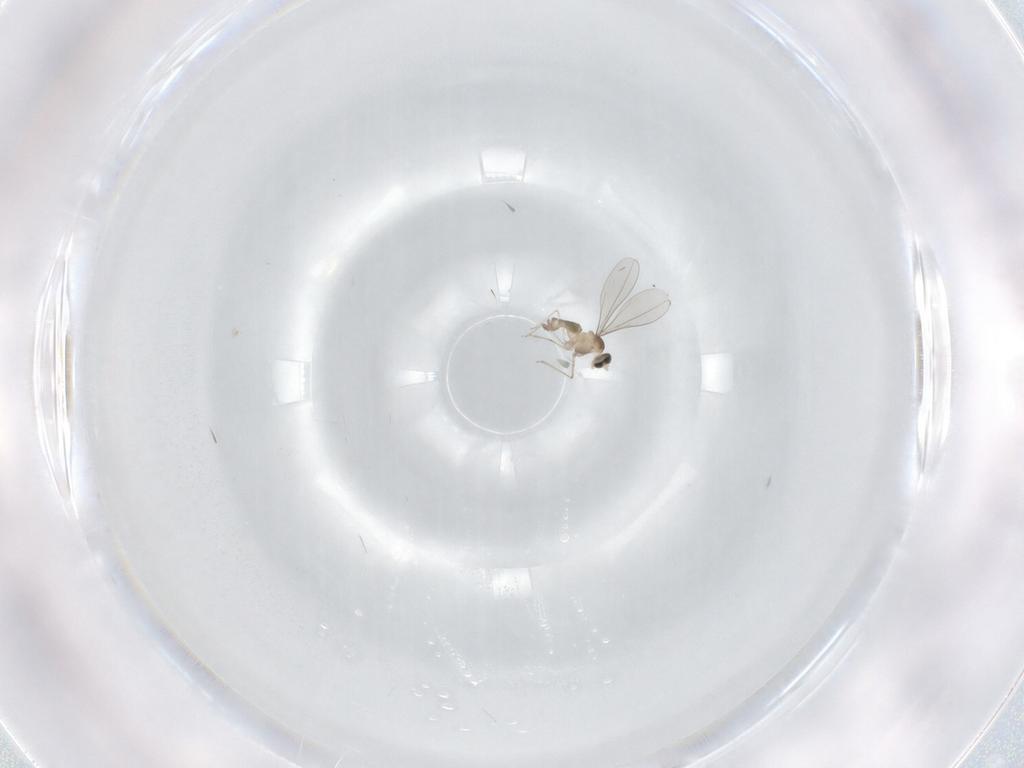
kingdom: Animalia
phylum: Arthropoda
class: Insecta
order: Diptera
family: Cecidomyiidae
